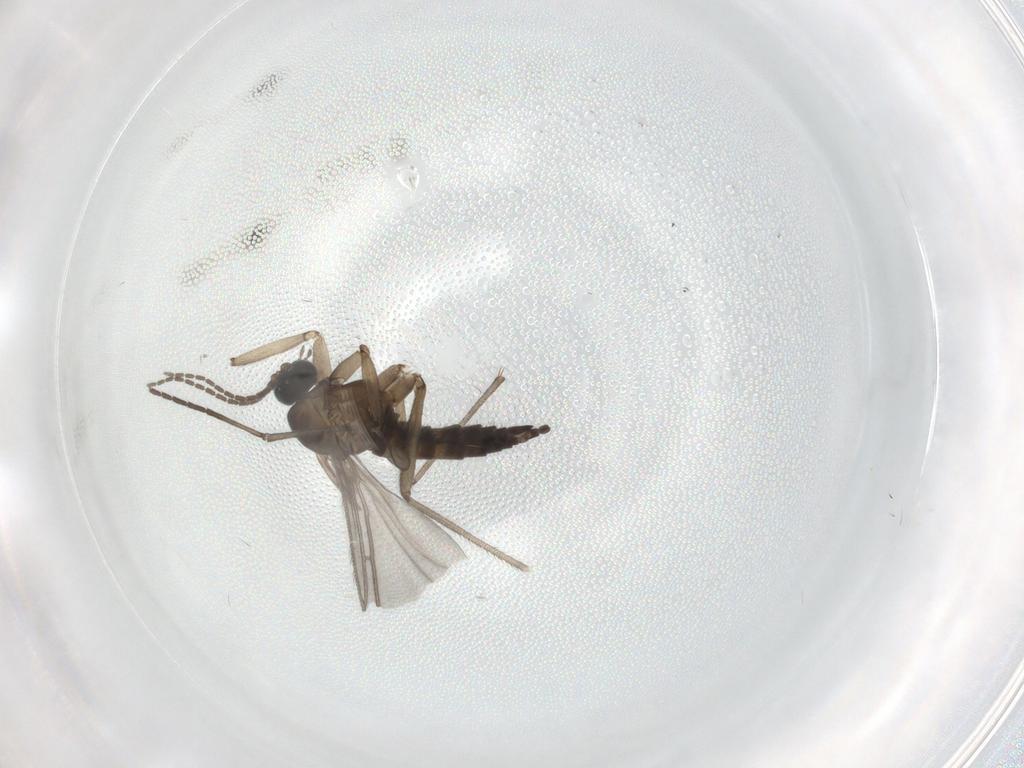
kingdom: Animalia
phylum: Arthropoda
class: Insecta
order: Diptera
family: Sciaridae
